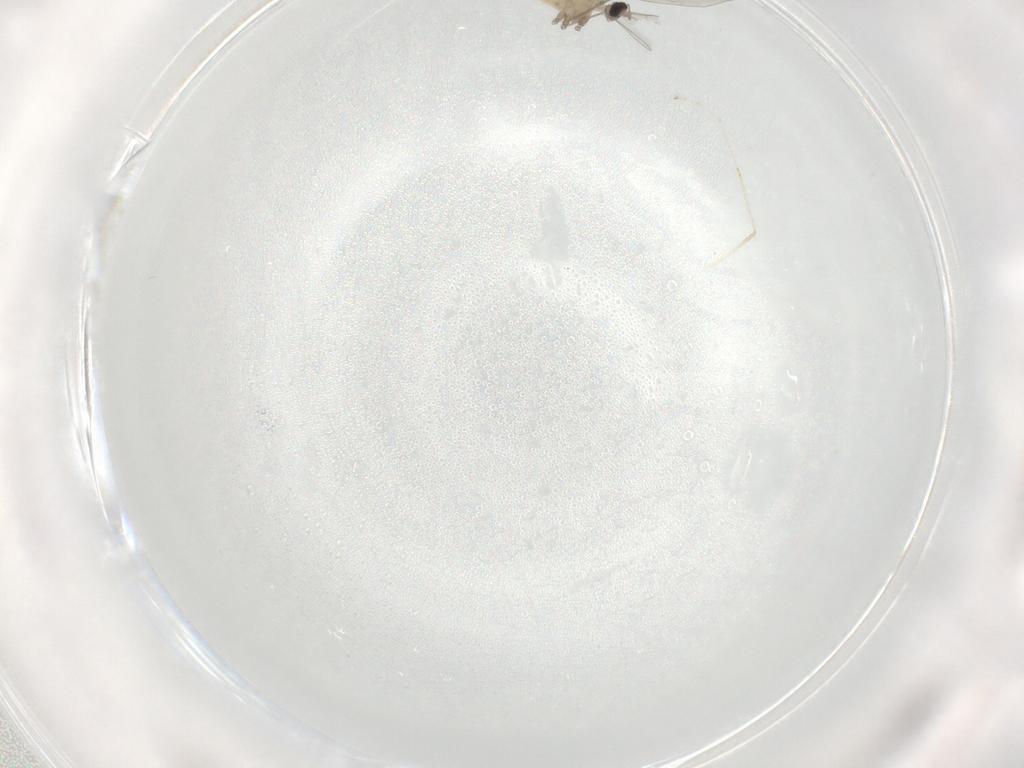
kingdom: Animalia
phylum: Arthropoda
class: Insecta
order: Diptera
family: Cecidomyiidae
